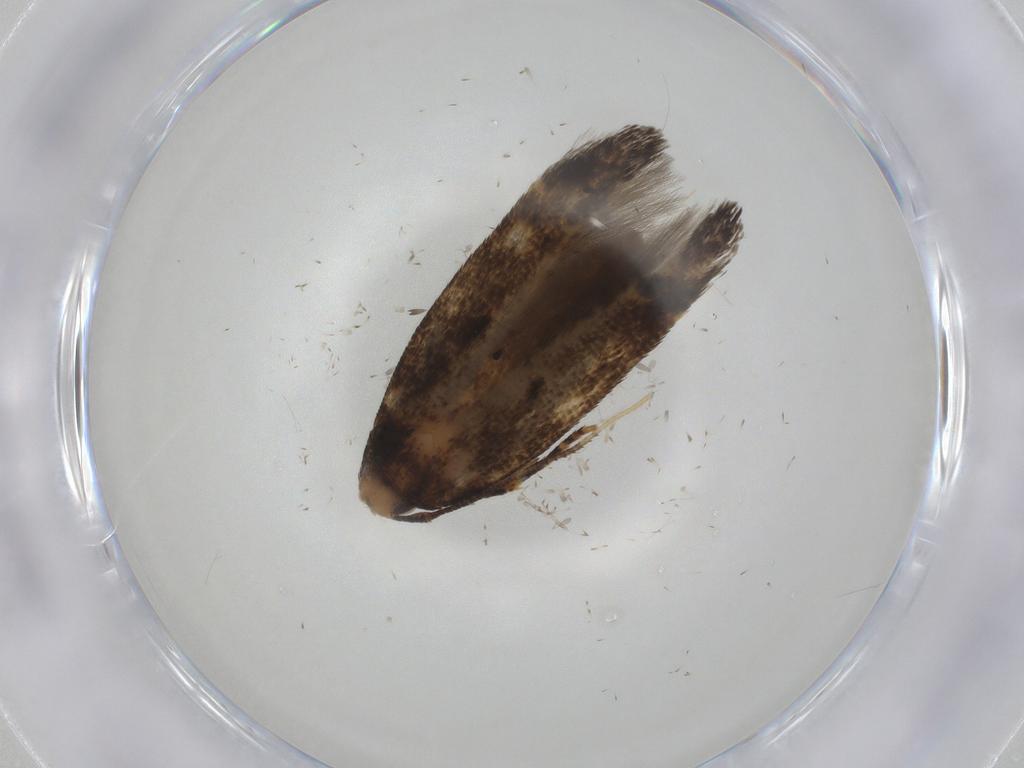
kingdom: Animalia
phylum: Arthropoda
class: Insecta
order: Lepidoptera
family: Cosmopterigidae
